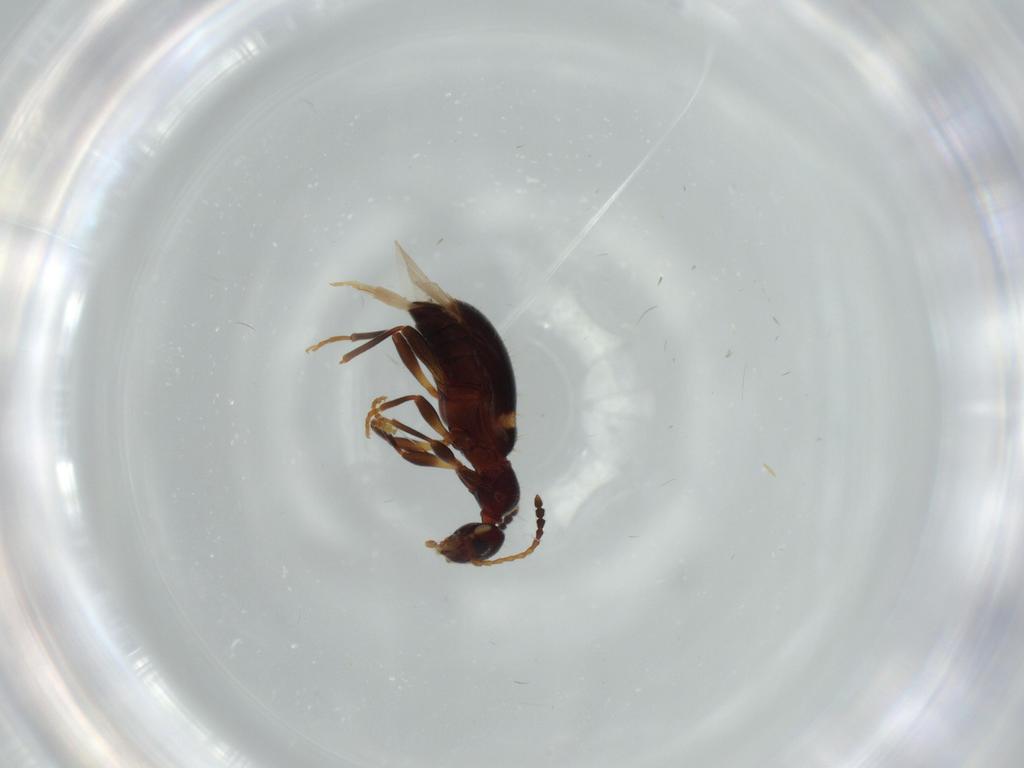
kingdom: Animalia
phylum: Arthropoda
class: Insecta
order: Coleoptera
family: Anthicidae
